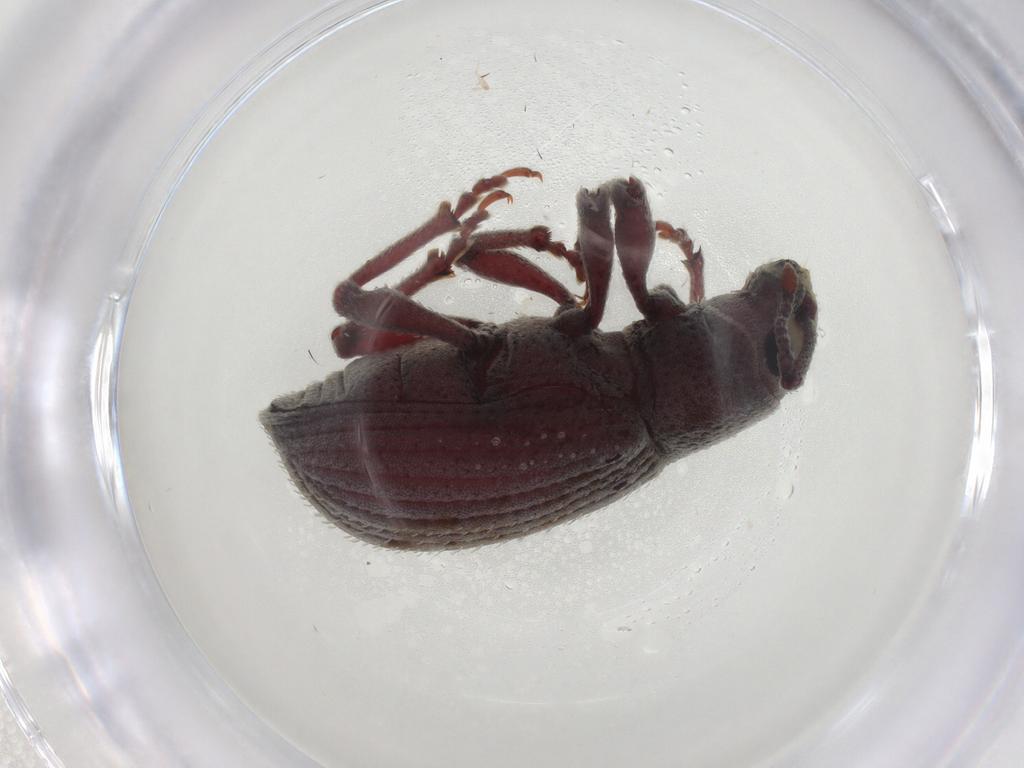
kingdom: Animalia
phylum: Arthropoda
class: Insecta
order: Coleoptera
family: Curculionidae
